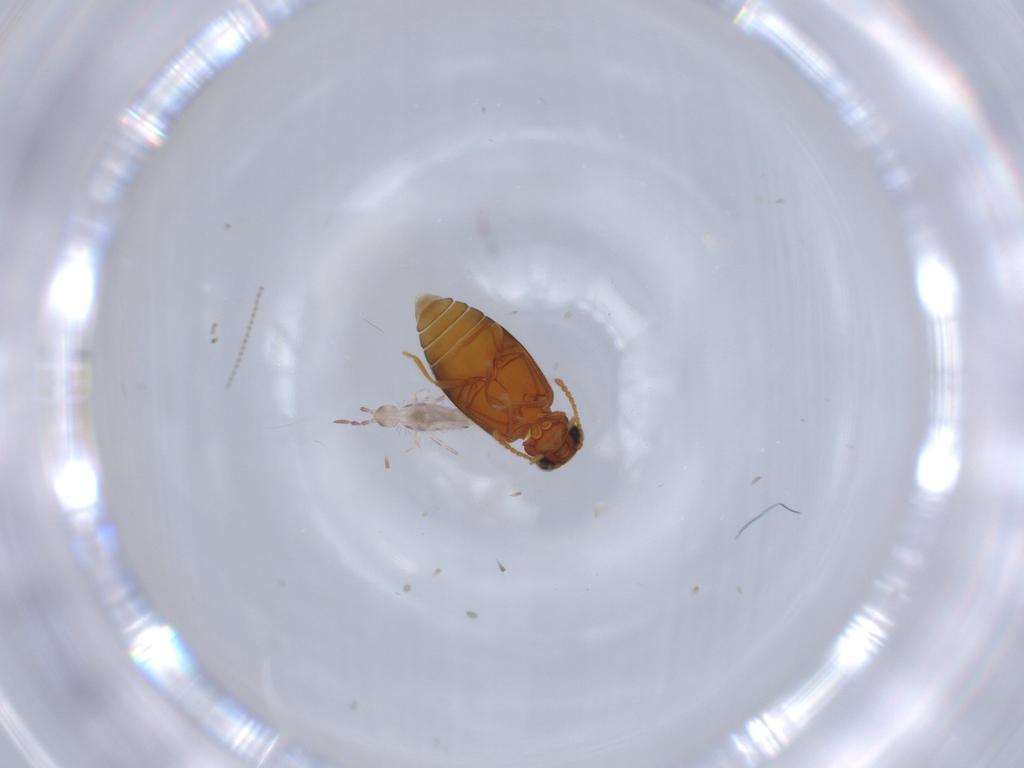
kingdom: Animalia
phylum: Arthropoda
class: Insecta
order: Coleoptera
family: Aderidae
